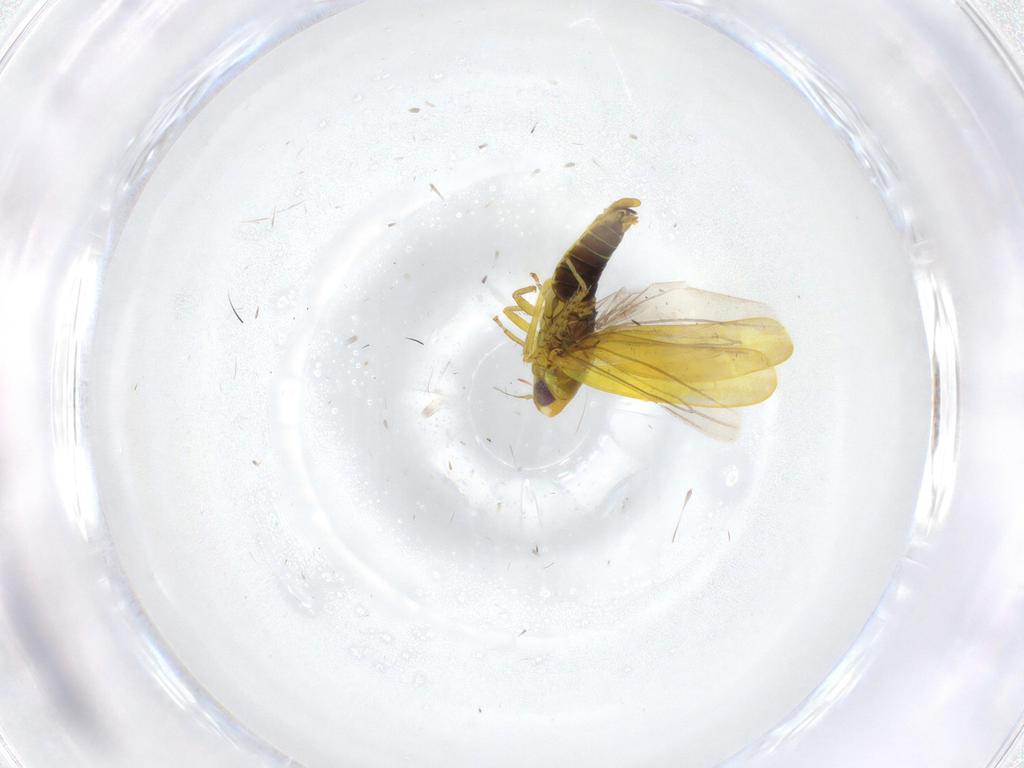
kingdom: Animalia
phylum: Arthropoda
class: Insecta
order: Hemiptera
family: Cicadellidae
